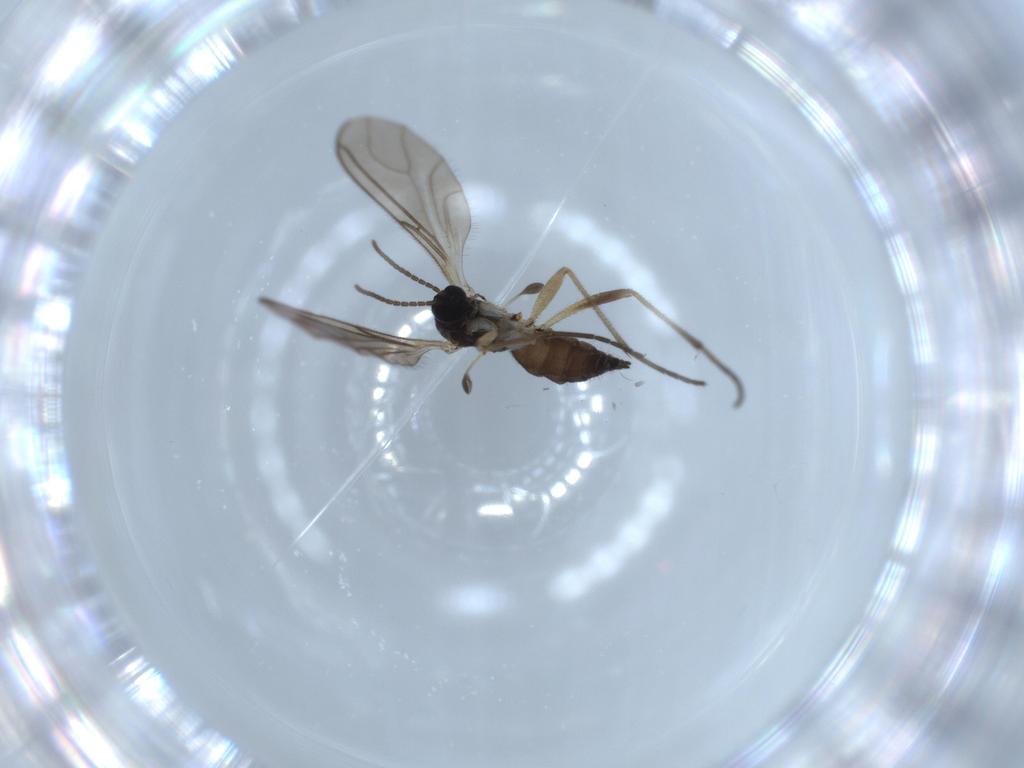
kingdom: Animalia
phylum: Arthropoda
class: Insecta
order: Diptera
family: Sciaridae
